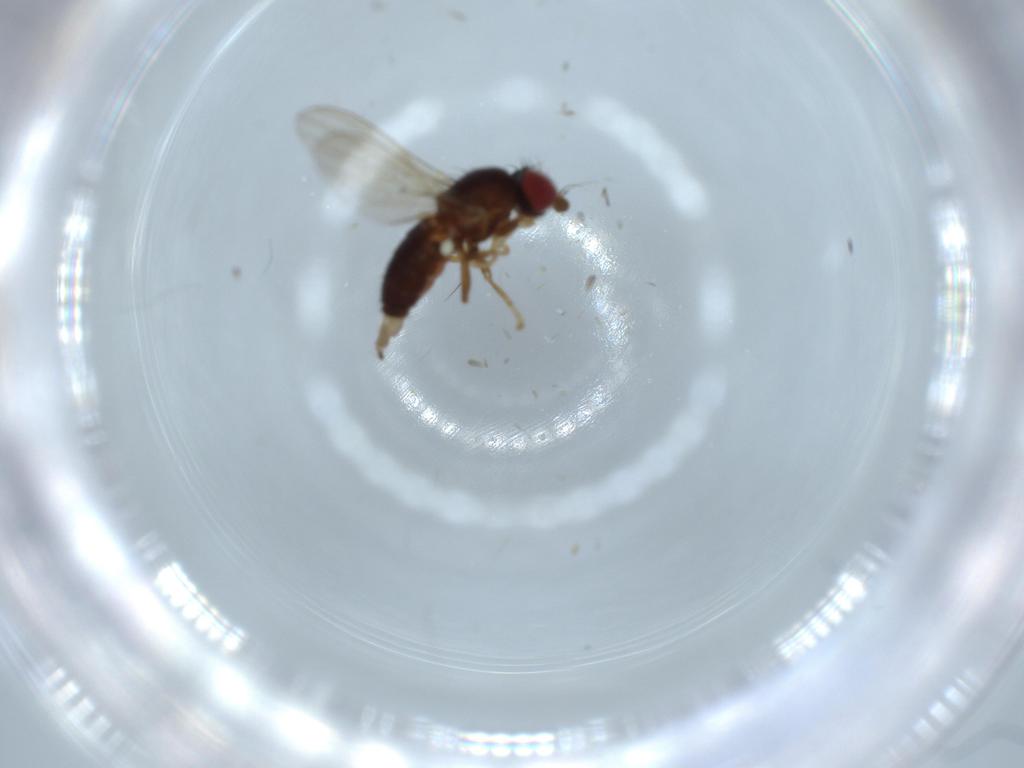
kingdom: Animalia
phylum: Arthropoda
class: Insecta
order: Diptera
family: Chamaemyiidae
